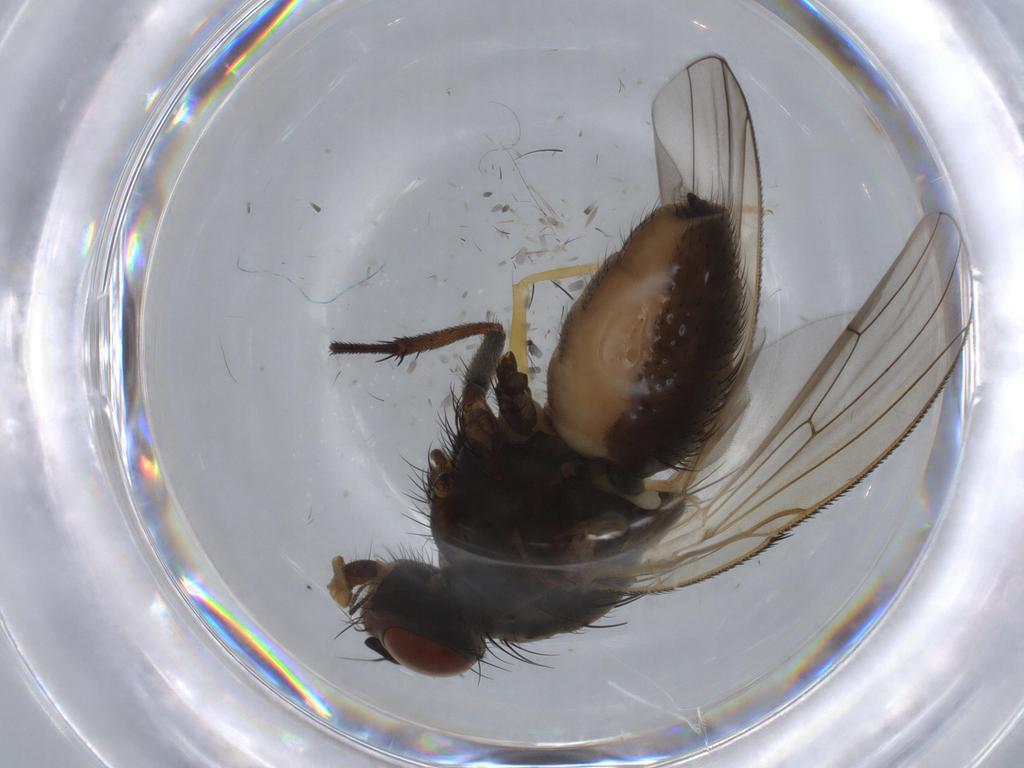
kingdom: Animalia
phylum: Arthropoda
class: Insecta
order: Diptera
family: Anthomyiidae
